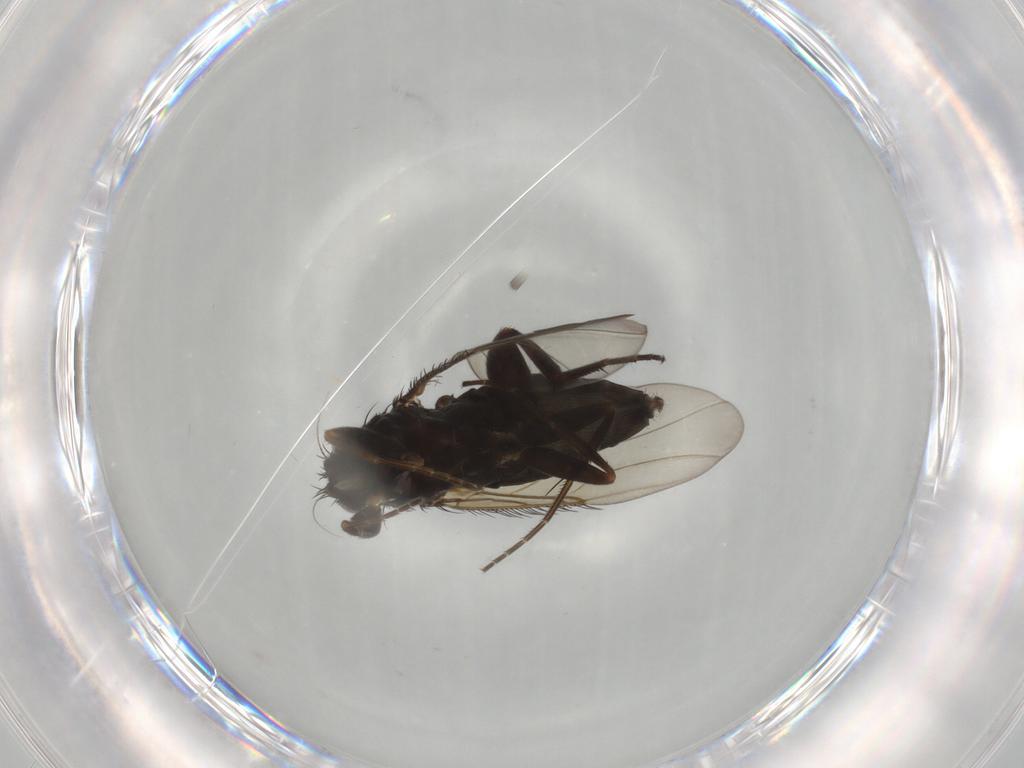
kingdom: Animalia
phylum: Arthropoda
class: Insecta
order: Diptera
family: Phoridae
